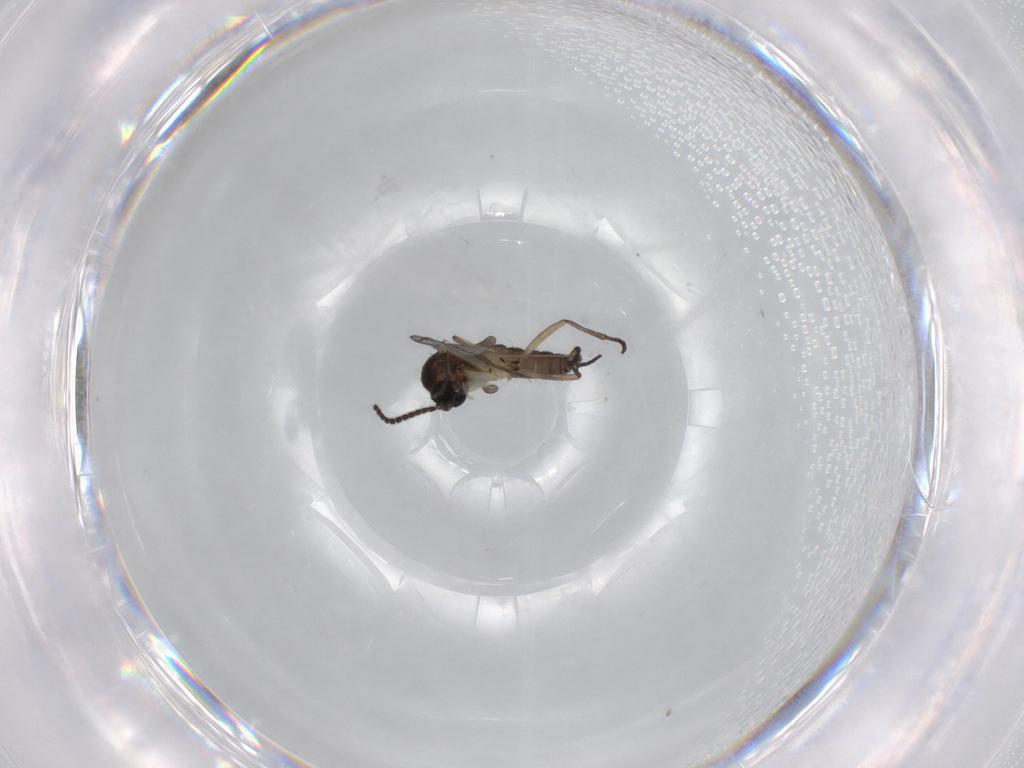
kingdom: Animalia
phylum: Arthropoda
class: Insecta
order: Diptera
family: Sciaridae
